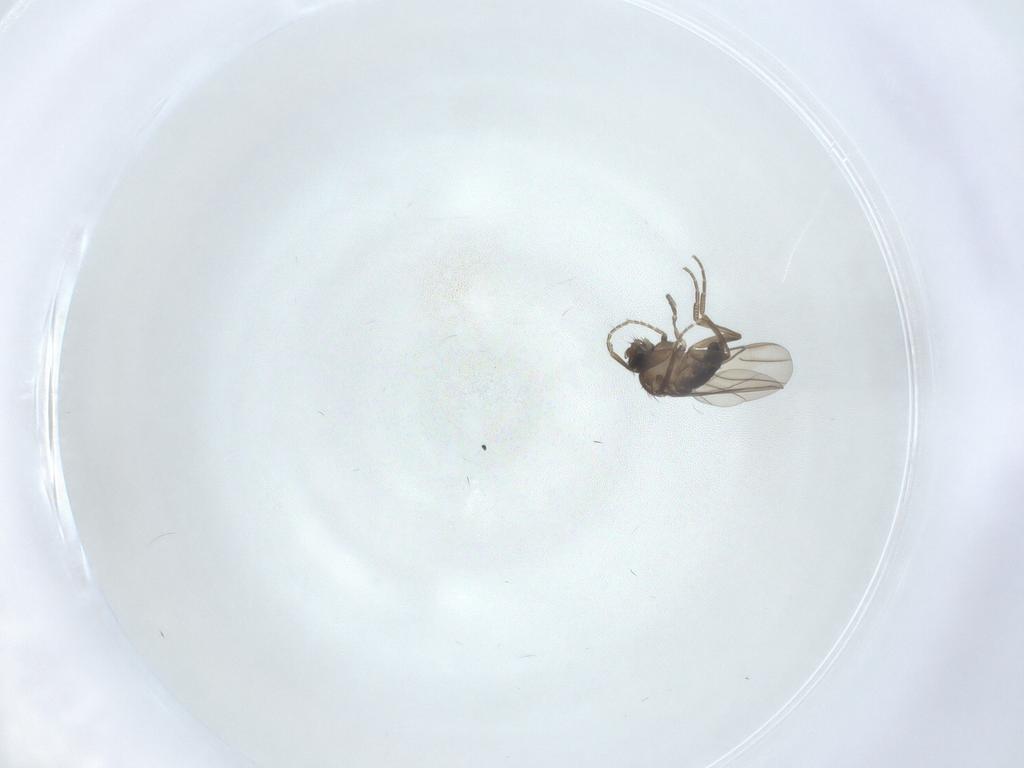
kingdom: Animalia
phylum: Arthropoda
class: Insecta
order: Diptera
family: Phoridae
